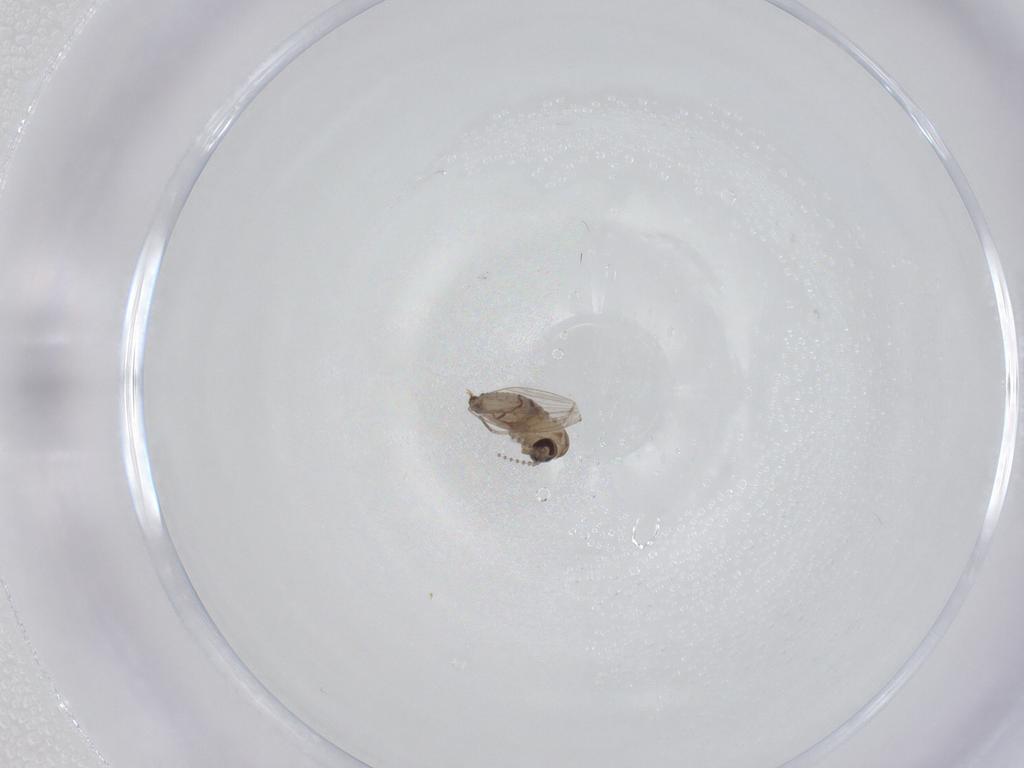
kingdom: Animalia
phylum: Arthropoda
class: Insecta
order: Diptera
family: Psychodidae
